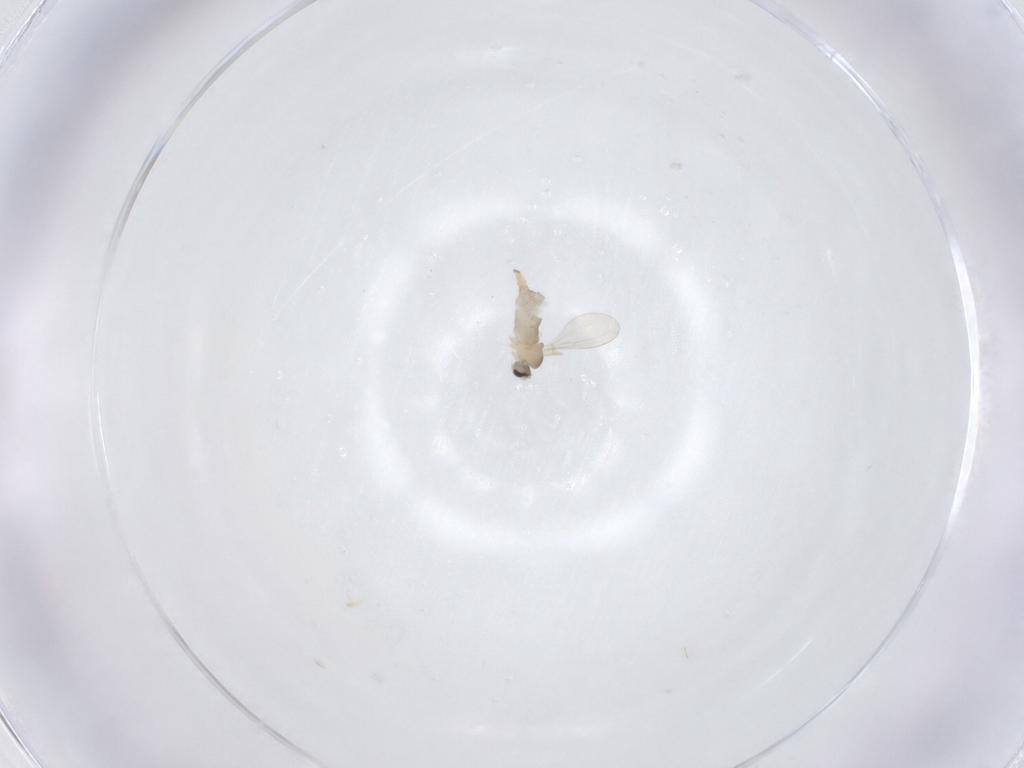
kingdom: Animalia
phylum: Arthropoda
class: Insecta
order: Diptera
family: Cecidomyiidae
